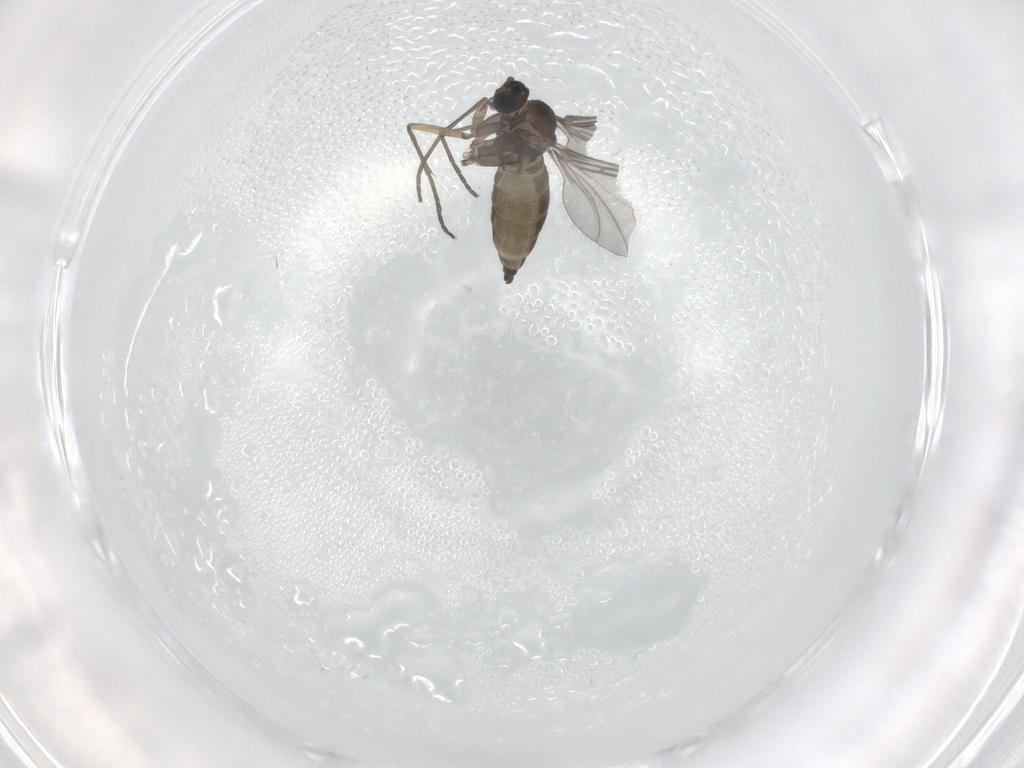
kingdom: Animalia
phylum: Arthropoda
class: Insecta
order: Diptera
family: Sciaridae
